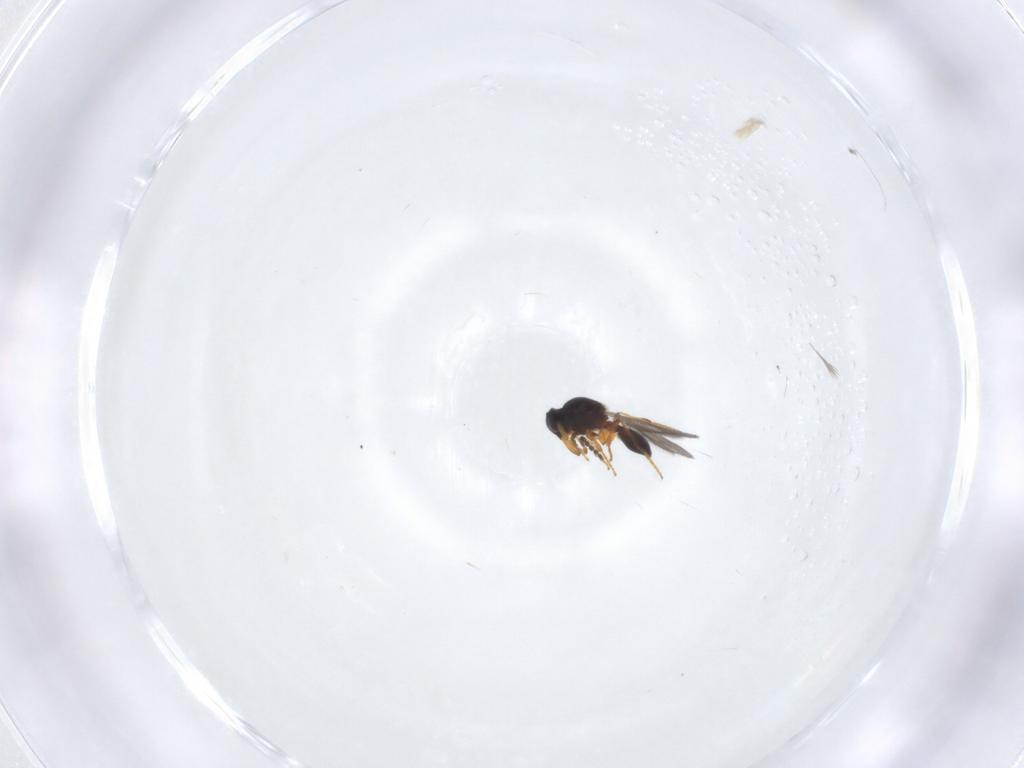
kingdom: Animalia
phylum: Arthropoda
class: Insecta
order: Hymenoptera
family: Platygastridae
